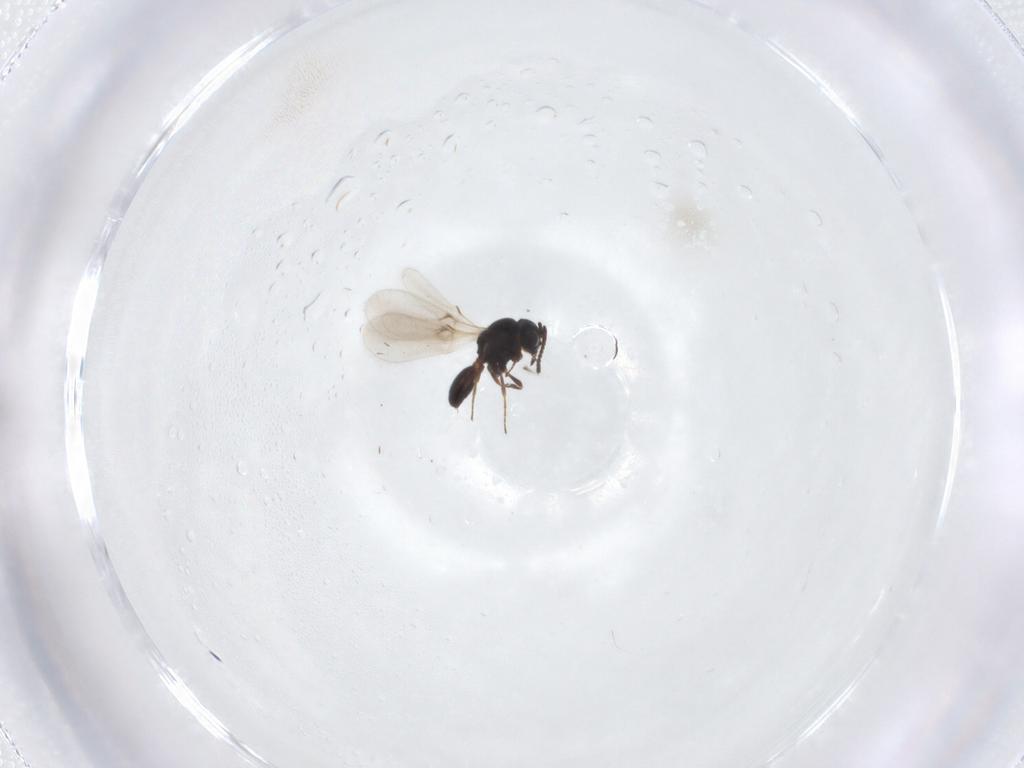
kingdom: Animalia
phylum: Arthropoda
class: Insecta
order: Hymenoptera
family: Scelionidae
